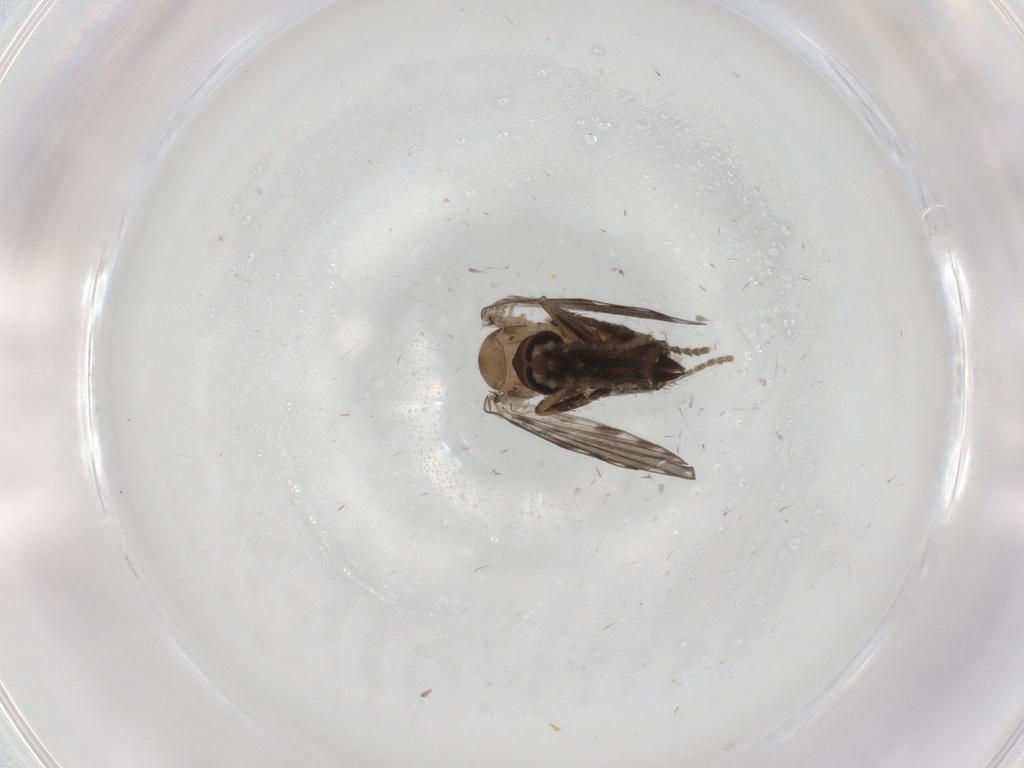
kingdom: Animalia
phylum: Arthropoda
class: Insecta
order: Diptera
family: Psychodidae
